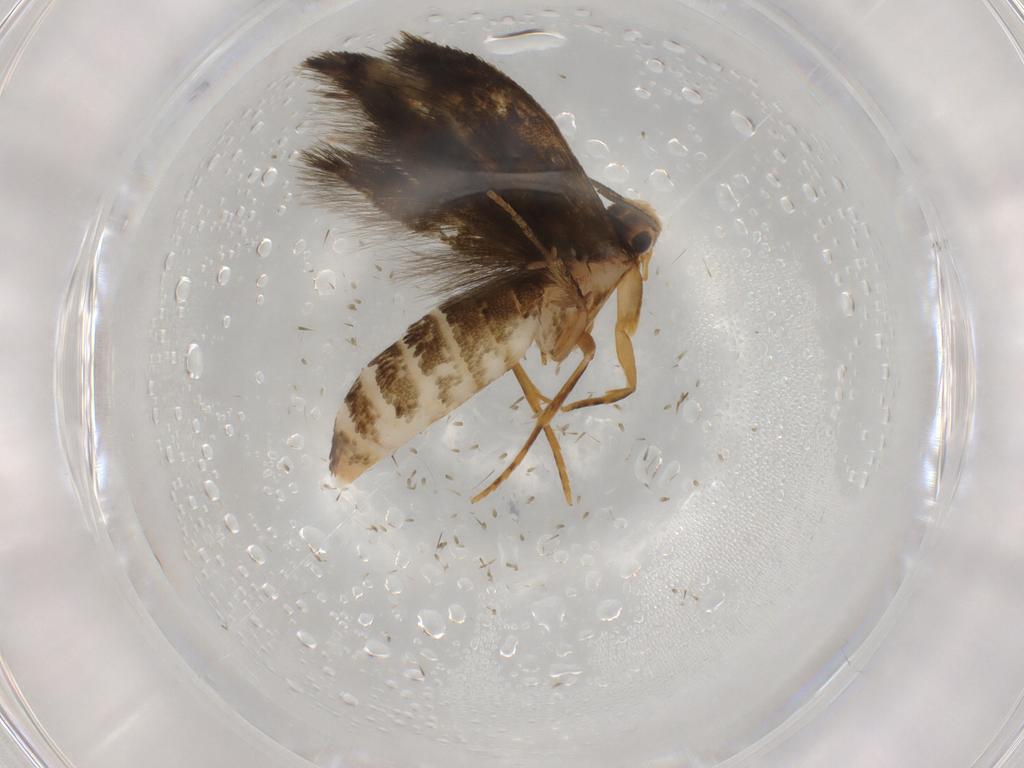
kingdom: Animalia
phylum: Arthropoda
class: Insecta
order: Lepidoptera
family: Tineidae
